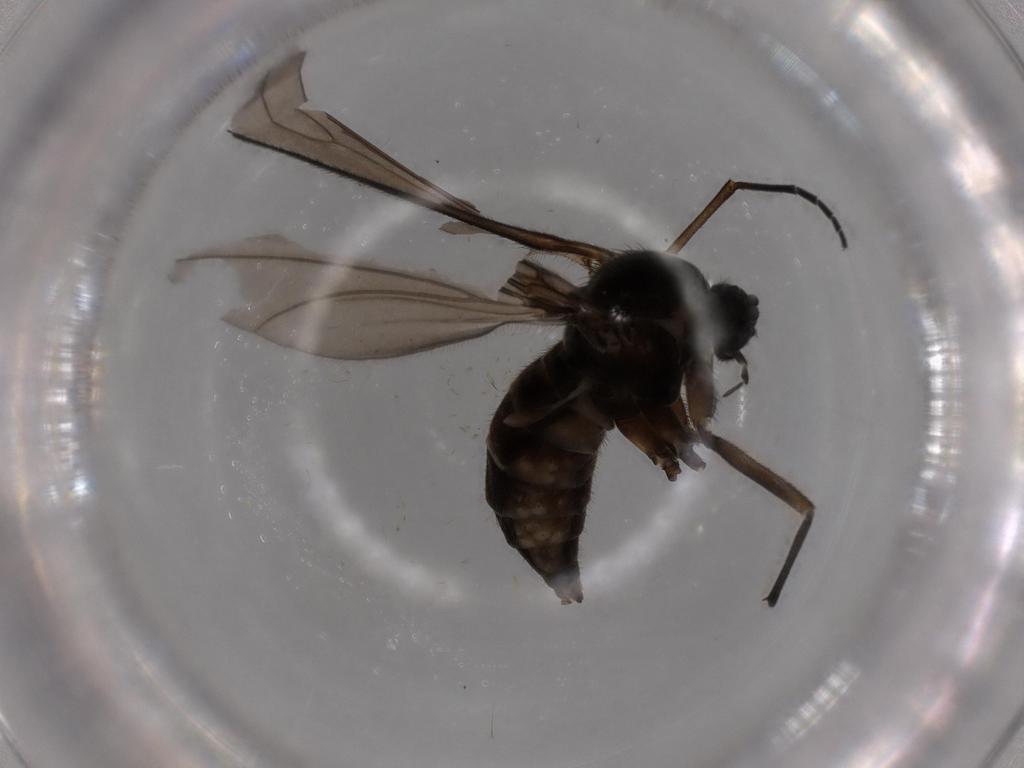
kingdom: Animalia
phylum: Arthropoda
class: Insecta
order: Diptera
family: Sciaridae
